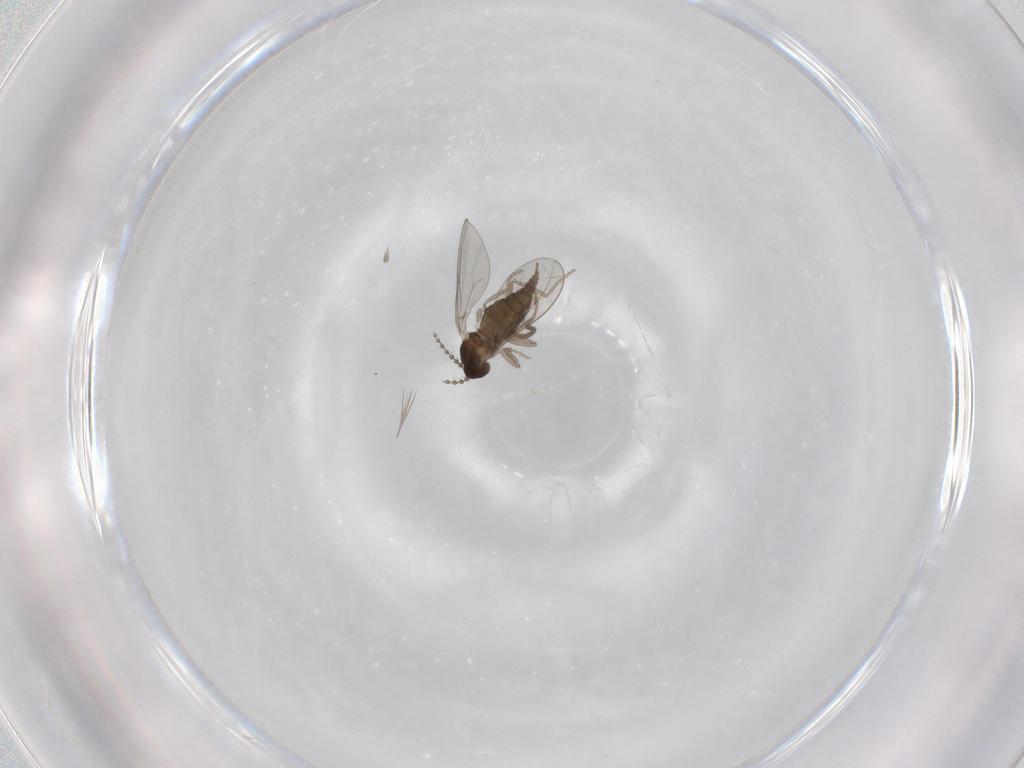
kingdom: Animalia
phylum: Arthropoda
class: Insecta
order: Diptera
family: Cecidomyiidae
